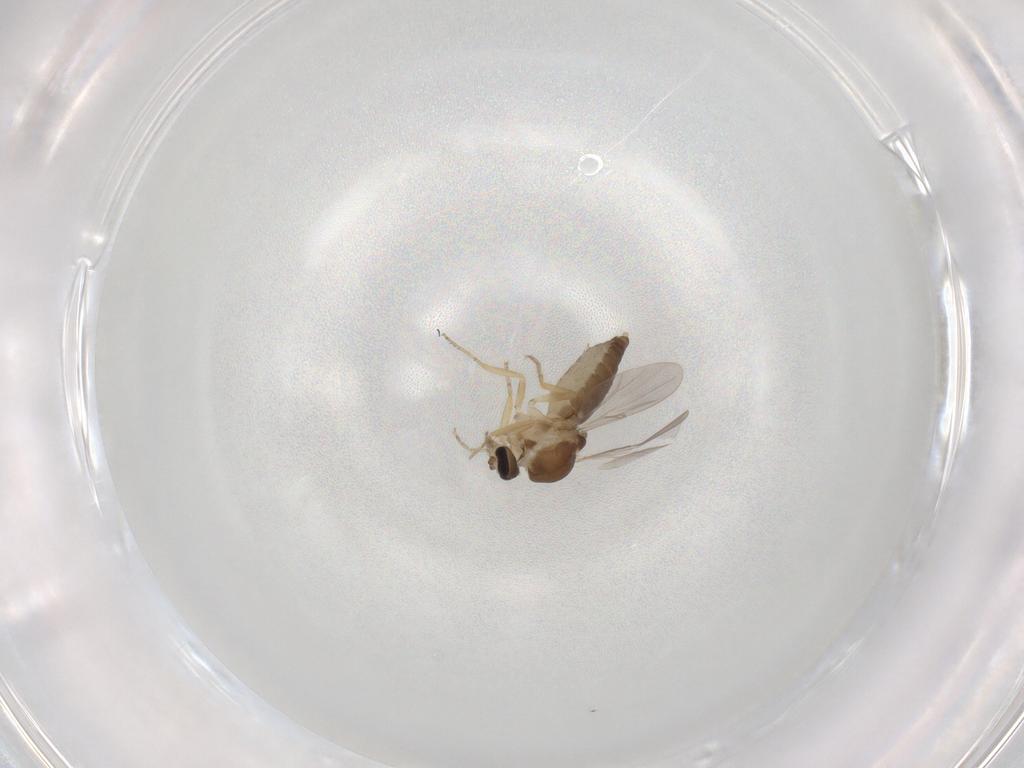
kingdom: Animalia
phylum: Arthropoda
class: Insecta
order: Diptera
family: Ceratopogonidae
